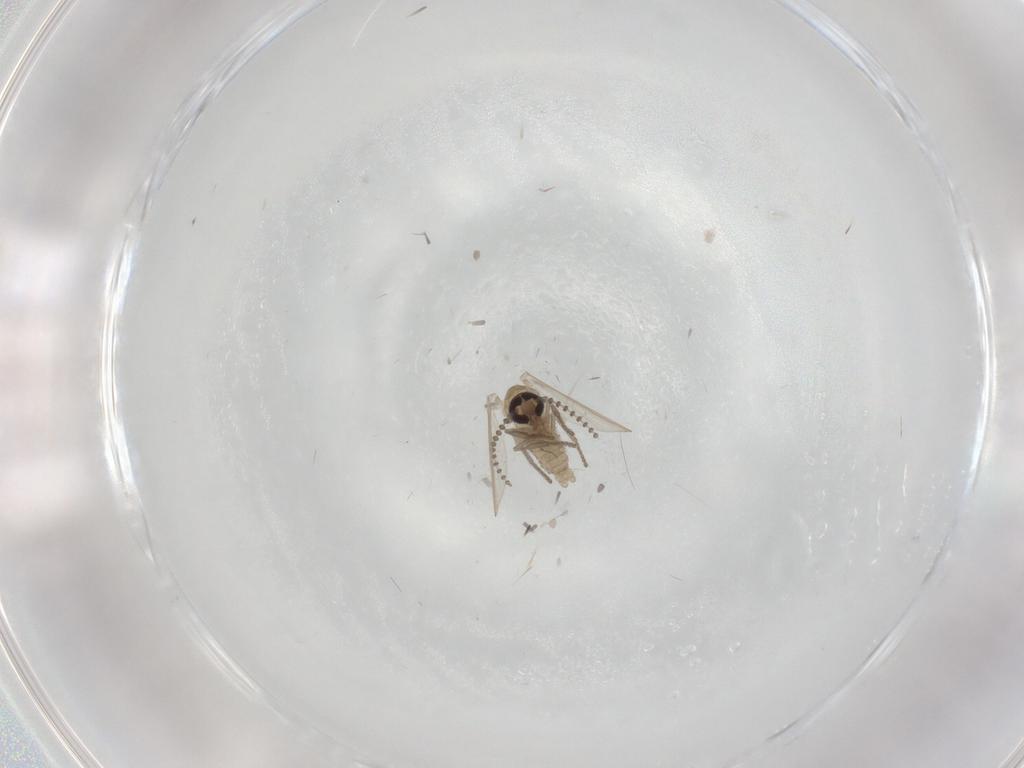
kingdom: Animalia
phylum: Arthropoda
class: Insecta
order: Diptera
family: Psychodidae
